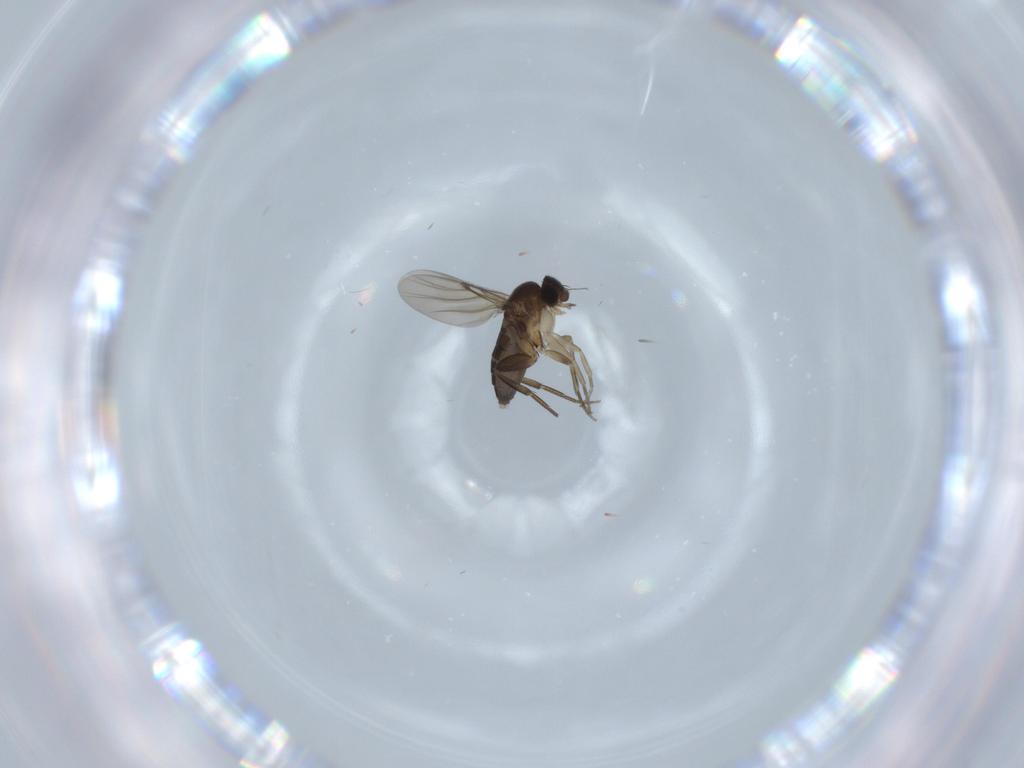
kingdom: Animalia
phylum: Arthropoda
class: Insecta
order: Diptera
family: Phoridae
